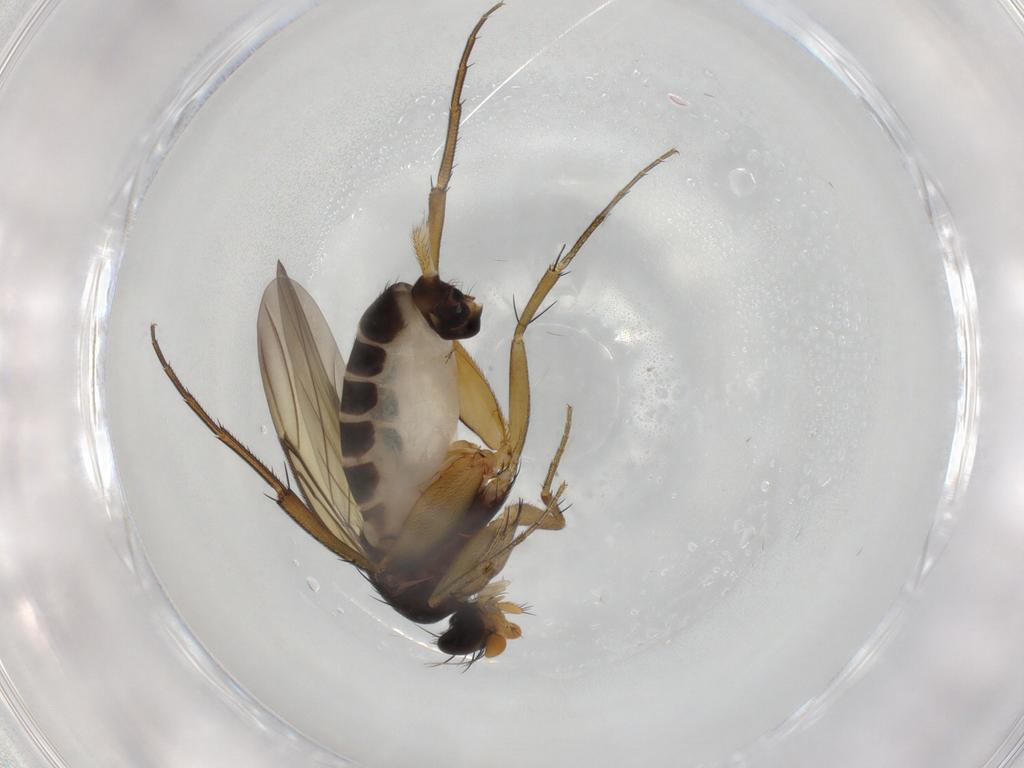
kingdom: Animalia
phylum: Arthropoda
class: Insecta
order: Diptera
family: Phoridae
